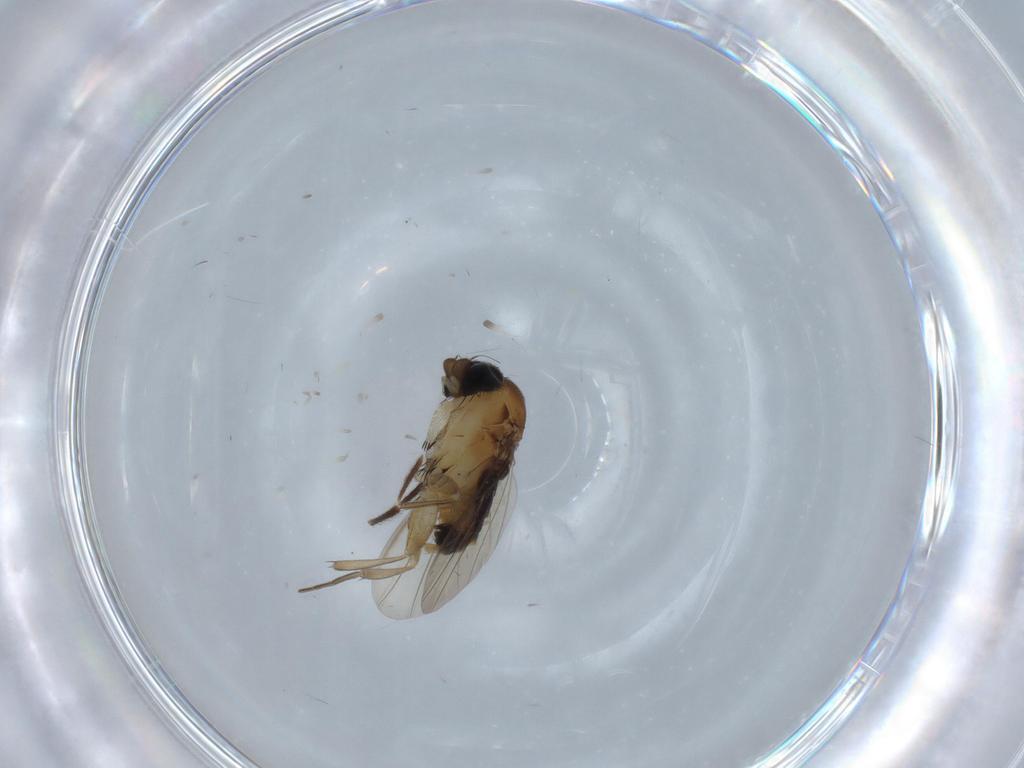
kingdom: Animalia
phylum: Arthropoda
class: Insecta
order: Diptera
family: Phoridae
